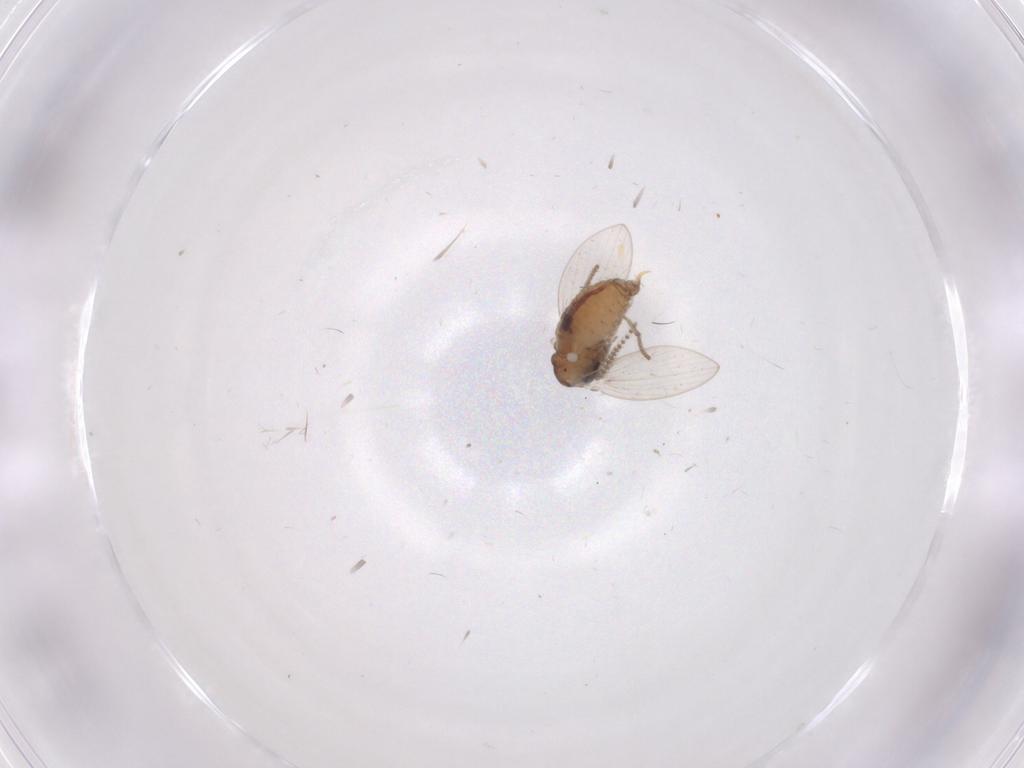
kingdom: Animalia
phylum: Arthropoda
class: Insecta
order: Diptera
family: Psychodidae
